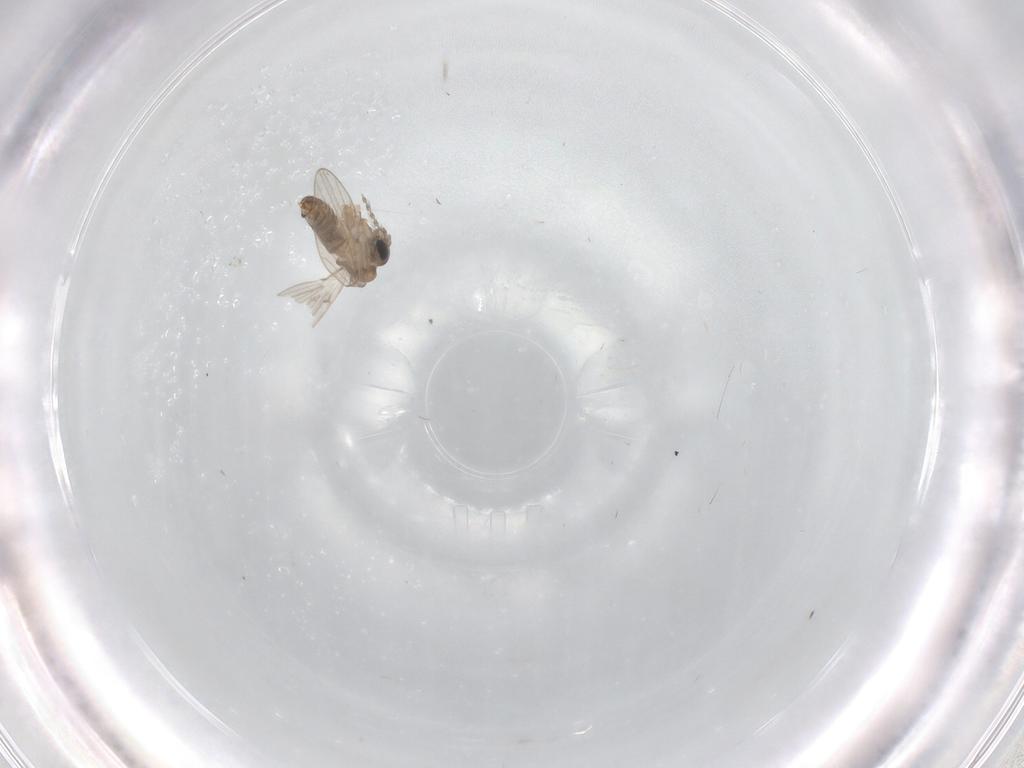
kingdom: Animalia
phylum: Arthropoda
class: Insecta
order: Diptera
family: Psychodidae
